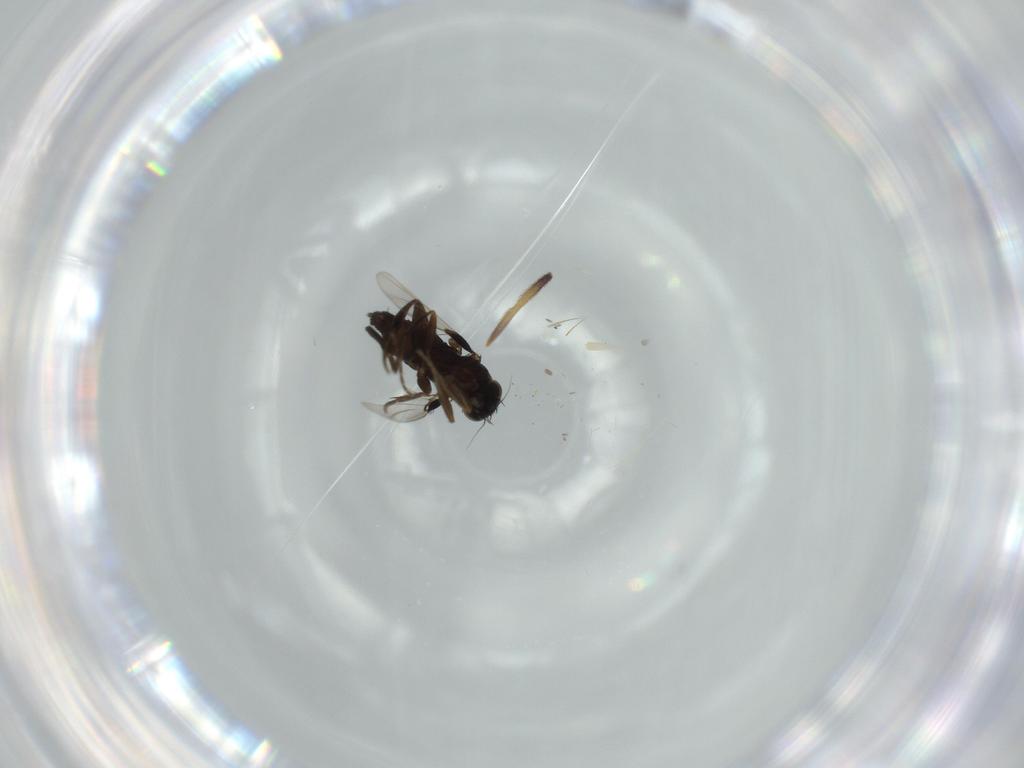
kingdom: Animalia
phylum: Arthropoda
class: Insecta
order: Diptera
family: Phoridae
